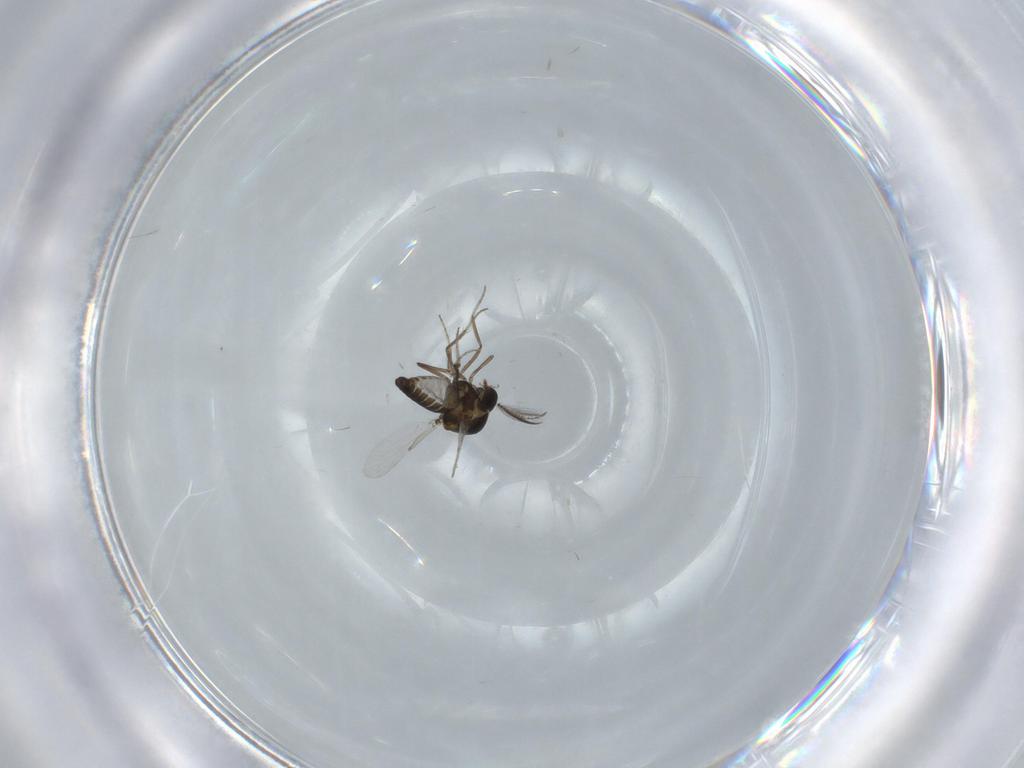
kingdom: Animalia
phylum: Arthropoda
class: Insecta
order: Diptera
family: Ceratopogonidae
